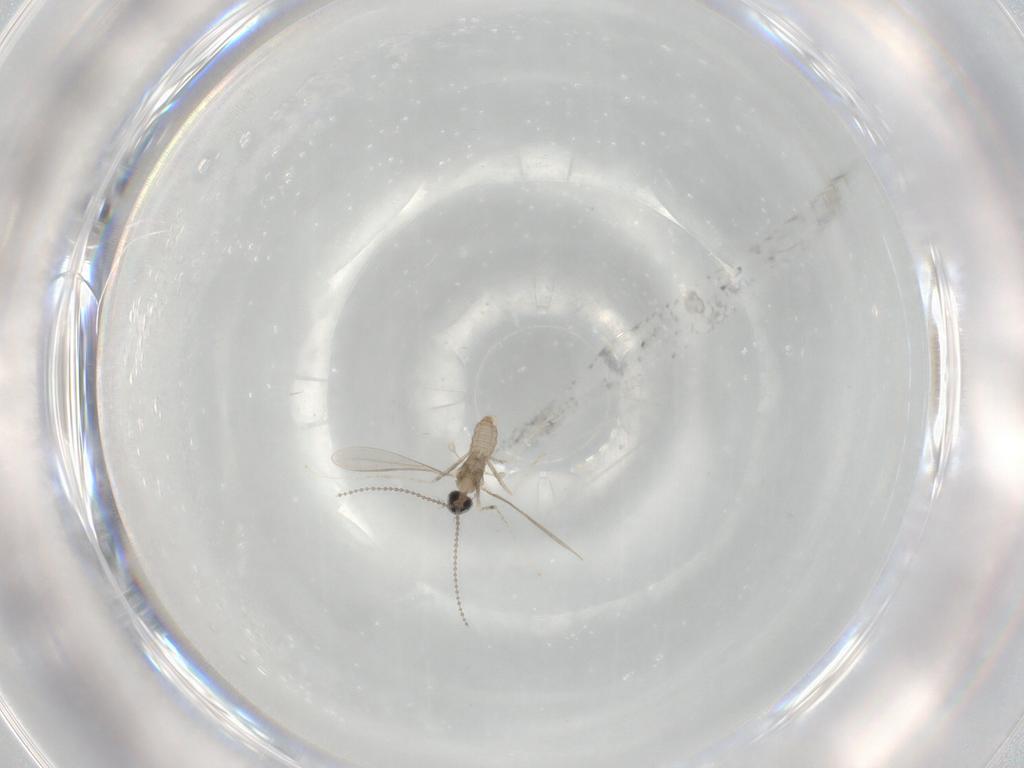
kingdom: Animalia
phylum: Arthropoda
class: Insecta
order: Diptera
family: Cecidomyiidae
